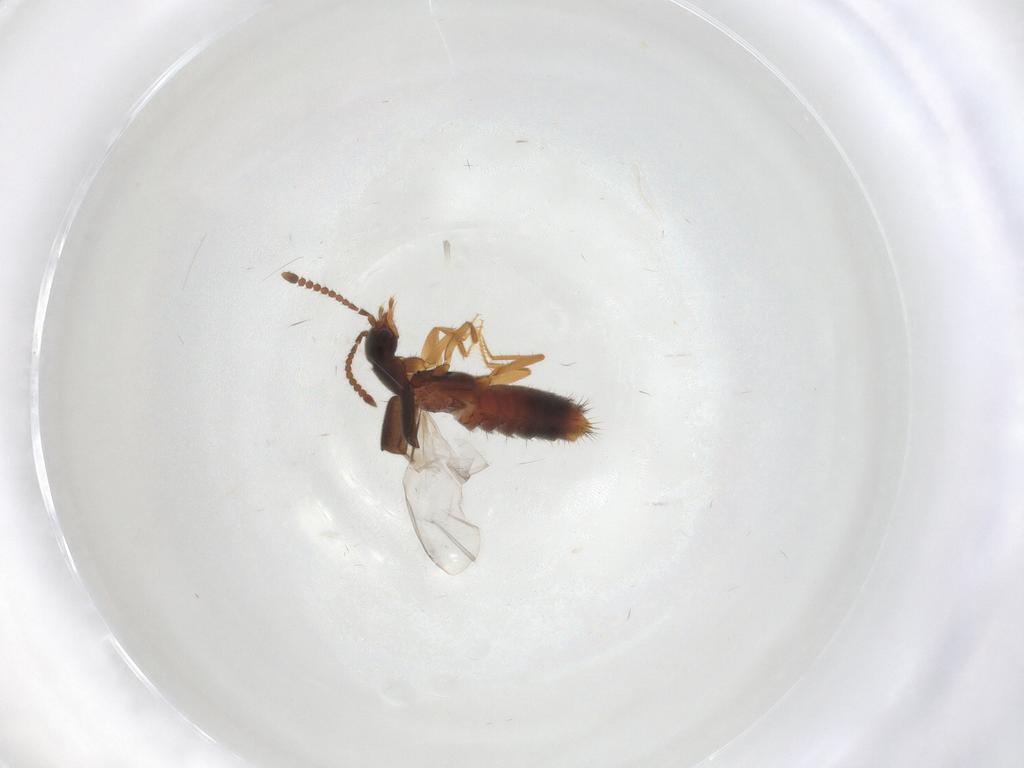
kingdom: Animalia
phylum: Arthropoda
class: Insecta
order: Coleoptera
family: Staphylinidae
